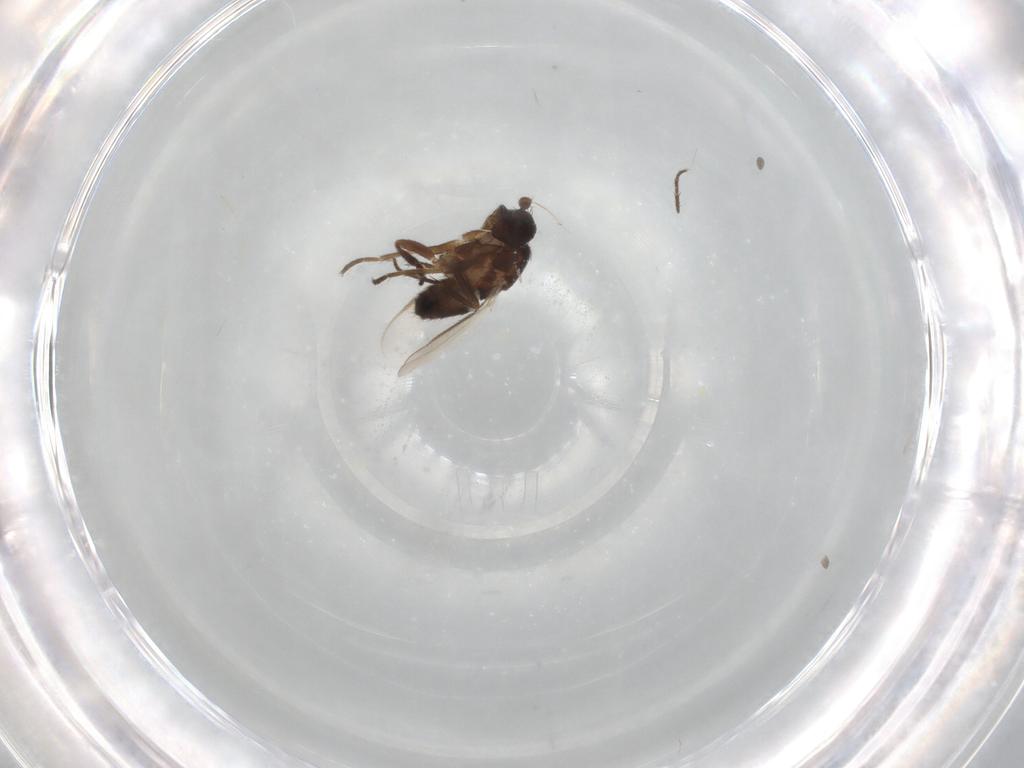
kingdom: Animalia
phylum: Arthropoda
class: Insecta
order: Diptera
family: Sphaeroceridae
